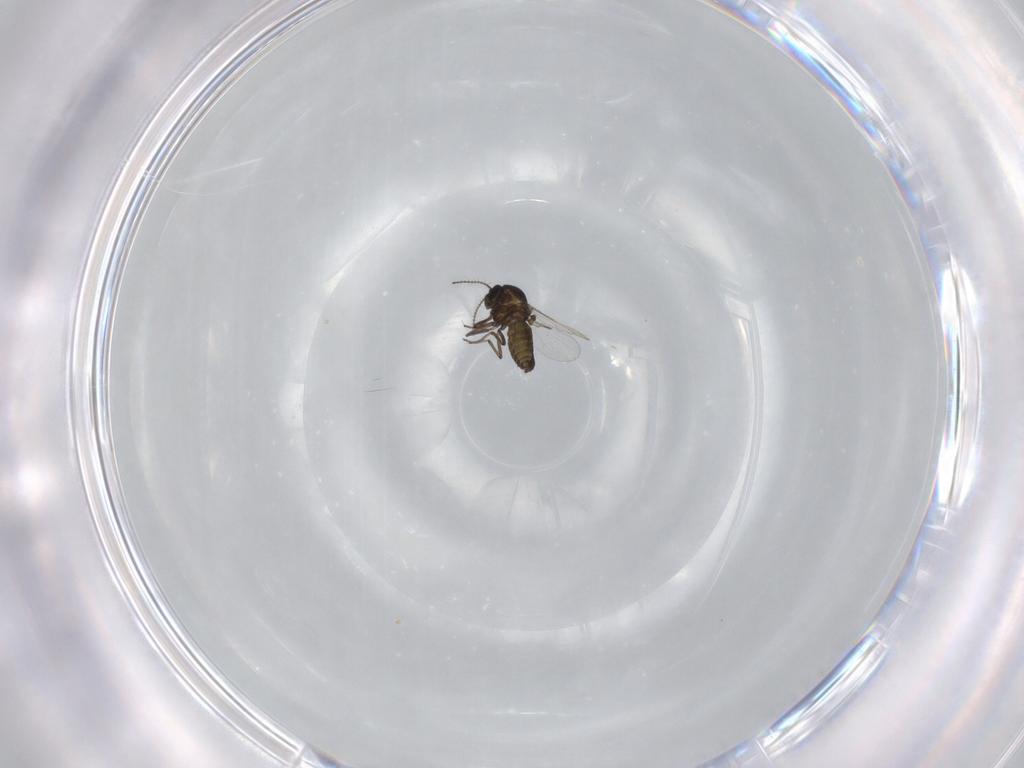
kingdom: Animalia
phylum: Arthropoda
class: Insecta
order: Diptera
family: Ceratopogonidae
